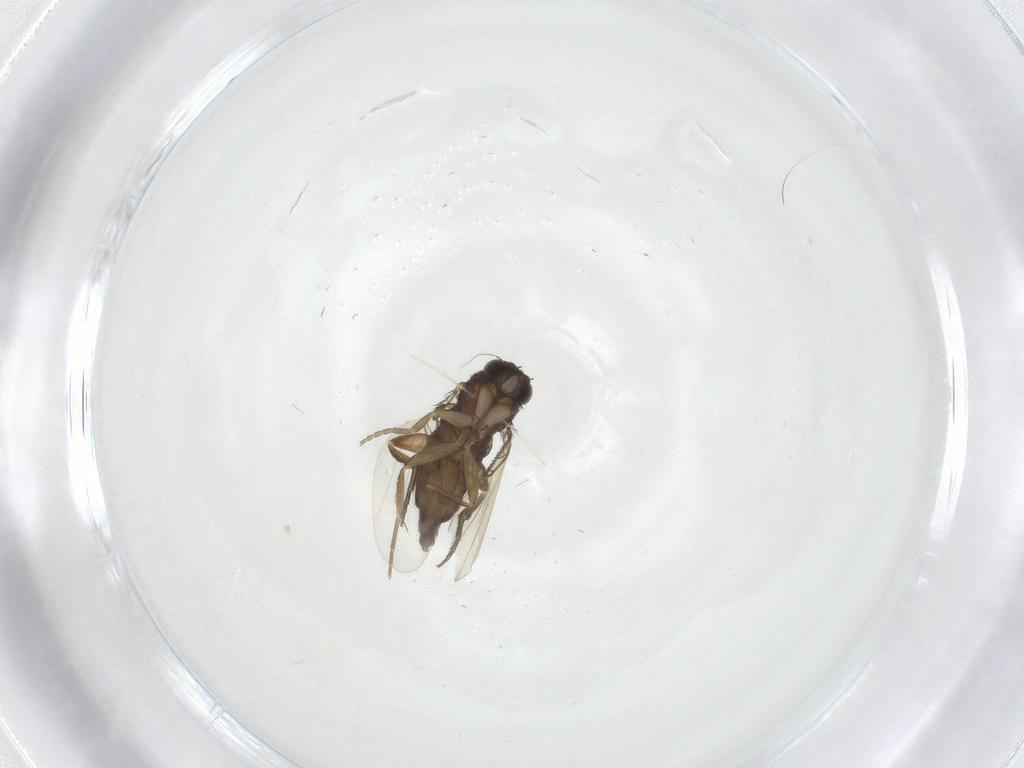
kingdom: Animalia
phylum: Arthropoda
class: Insecta
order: Diptera
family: Phoridae
